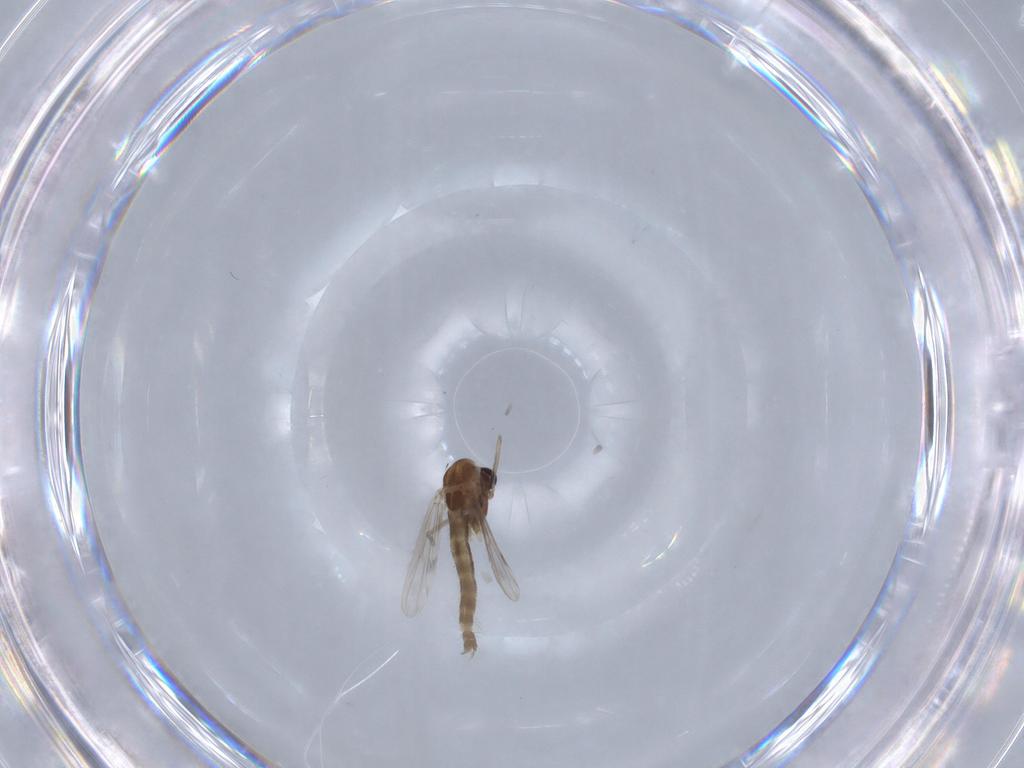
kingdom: Animalia
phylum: Arthropoda
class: Insecta
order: Diptera
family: Chironomidae
